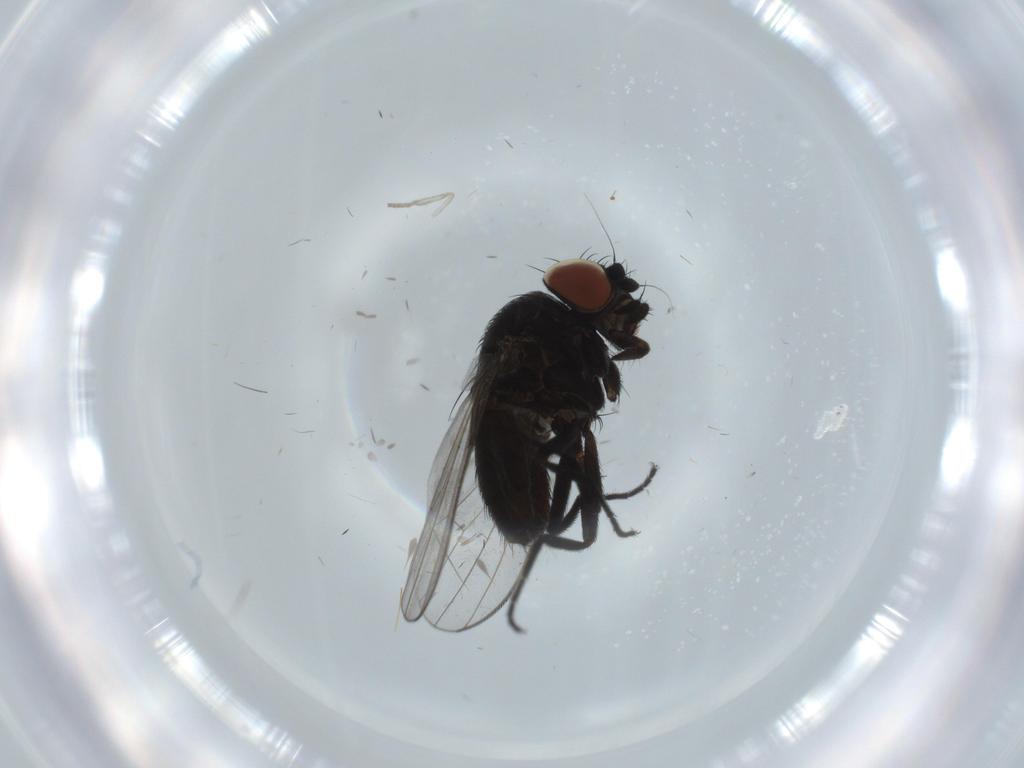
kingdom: Animalia
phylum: Arthropoda
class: Insecta
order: Diptera
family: Milichiidae
